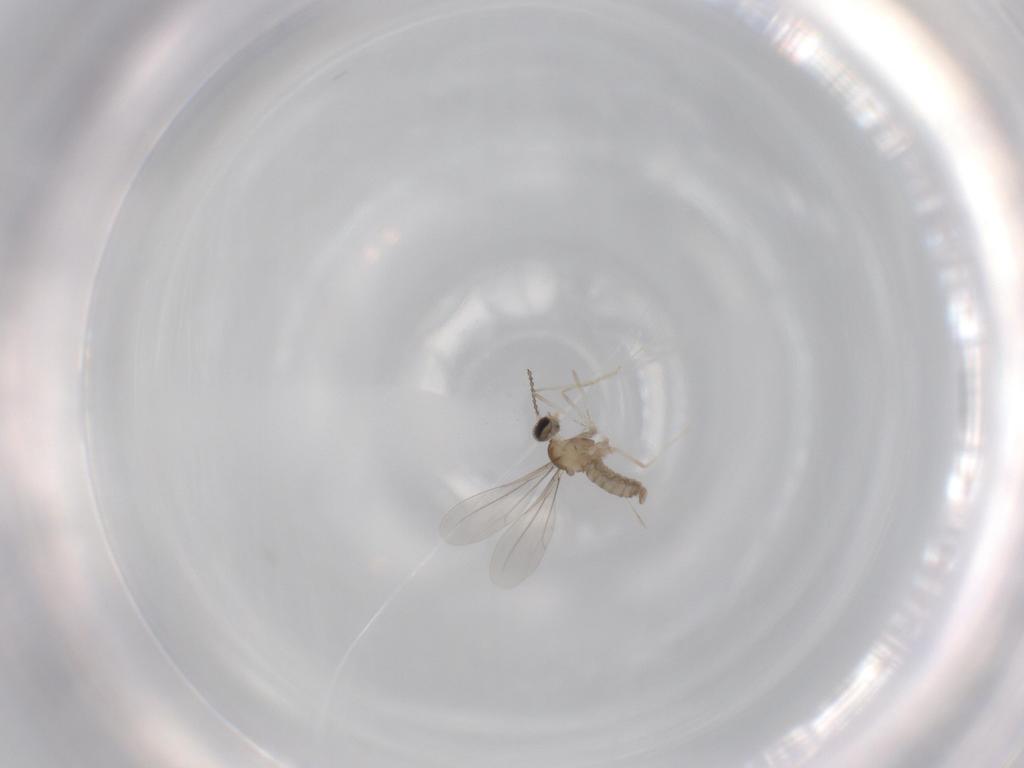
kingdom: Animalia
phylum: Arthropoda
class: Insecta
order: Diptera
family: Cecidomyiidae
